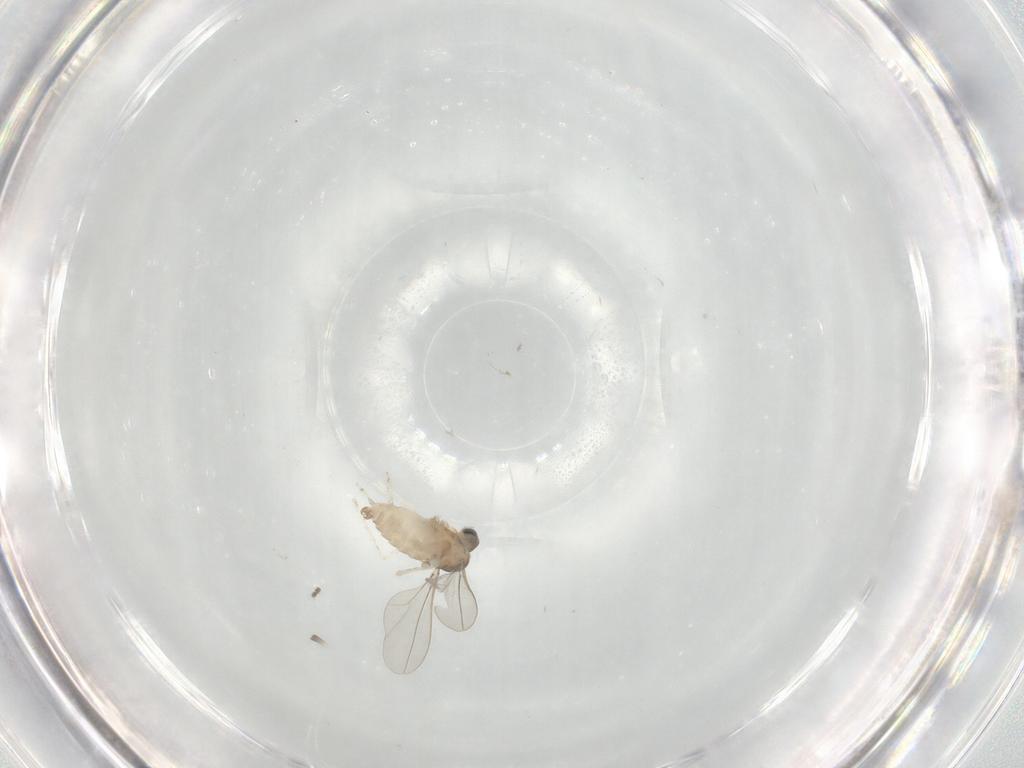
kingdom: Animalia
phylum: Arthropoda
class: Insecta
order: Diptera
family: Cecidomyiidae
